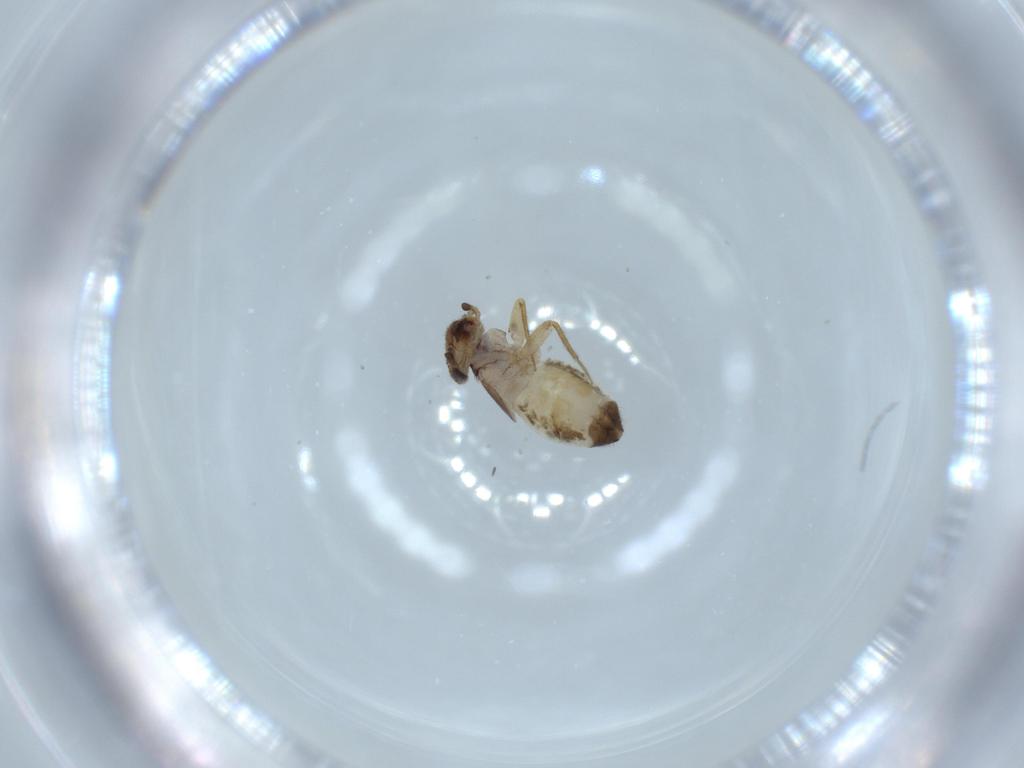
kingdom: Animalia
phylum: Arthropoda
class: Insecta
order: Psocodea
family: Lepidopsocidae
